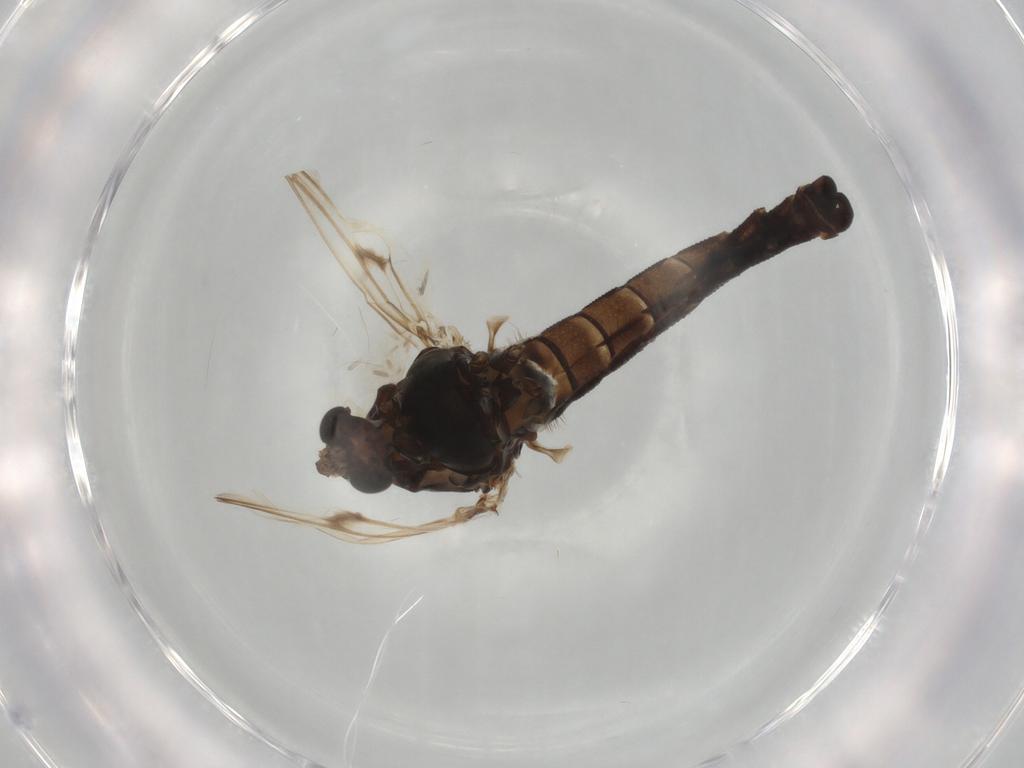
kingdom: Animalia
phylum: Arthropoda
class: Insecta
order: Diptera
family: Chironomidae
